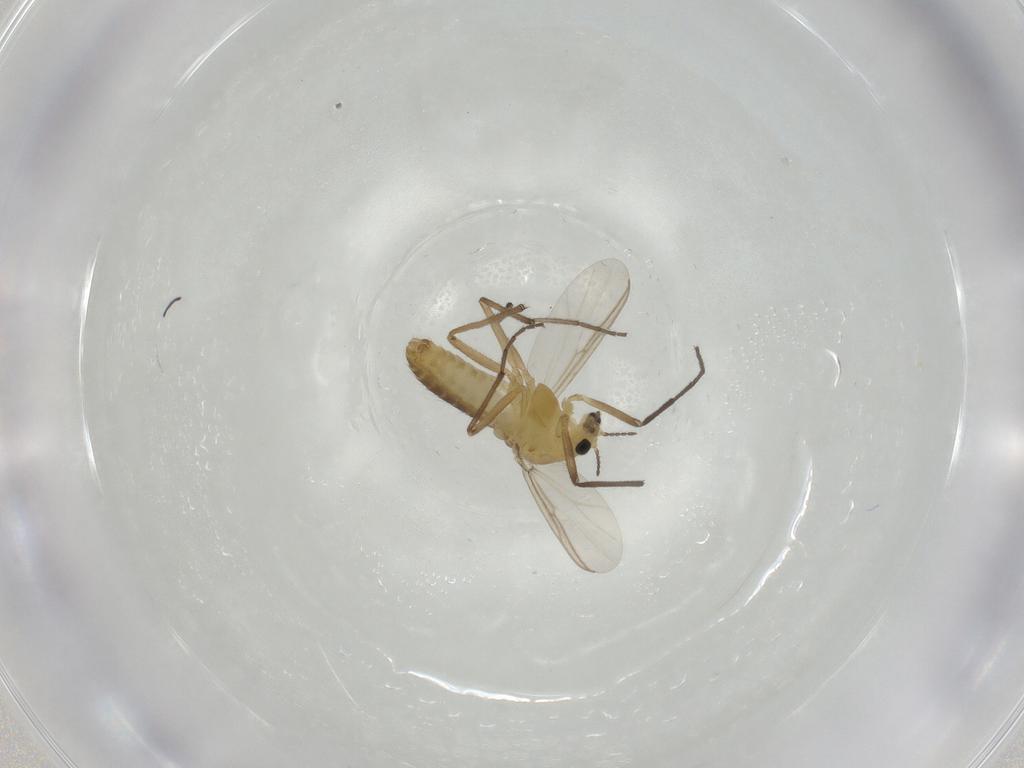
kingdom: Animalia
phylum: Arthropoda
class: Insecta
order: Diptera
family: Chironomidae
